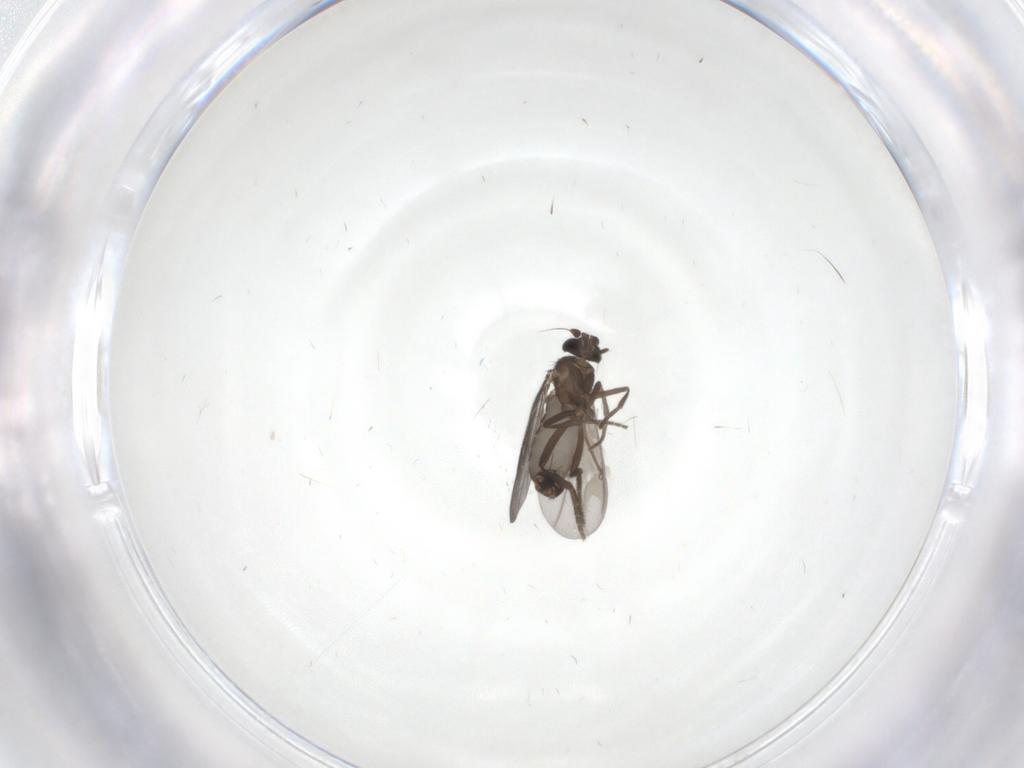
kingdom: Animalia
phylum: Arthropoda
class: Insecta
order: Diptera
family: Phoridae
